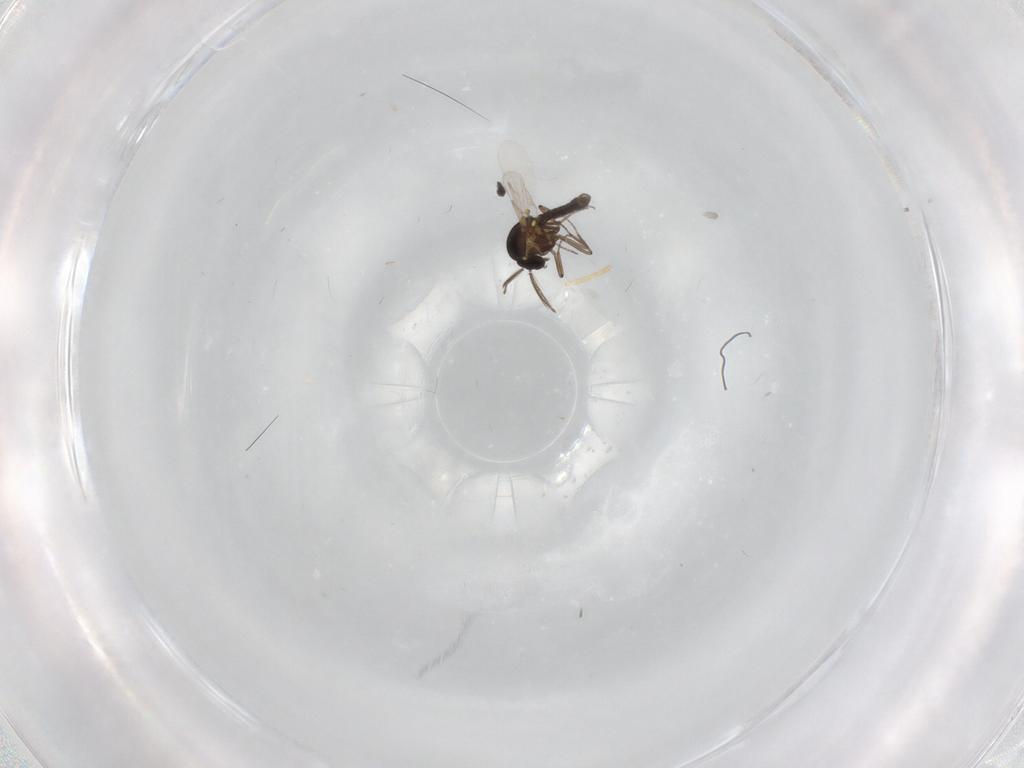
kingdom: Animalia
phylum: Arthropoda
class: Insecta
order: Diptera
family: Ceratopogonidae
